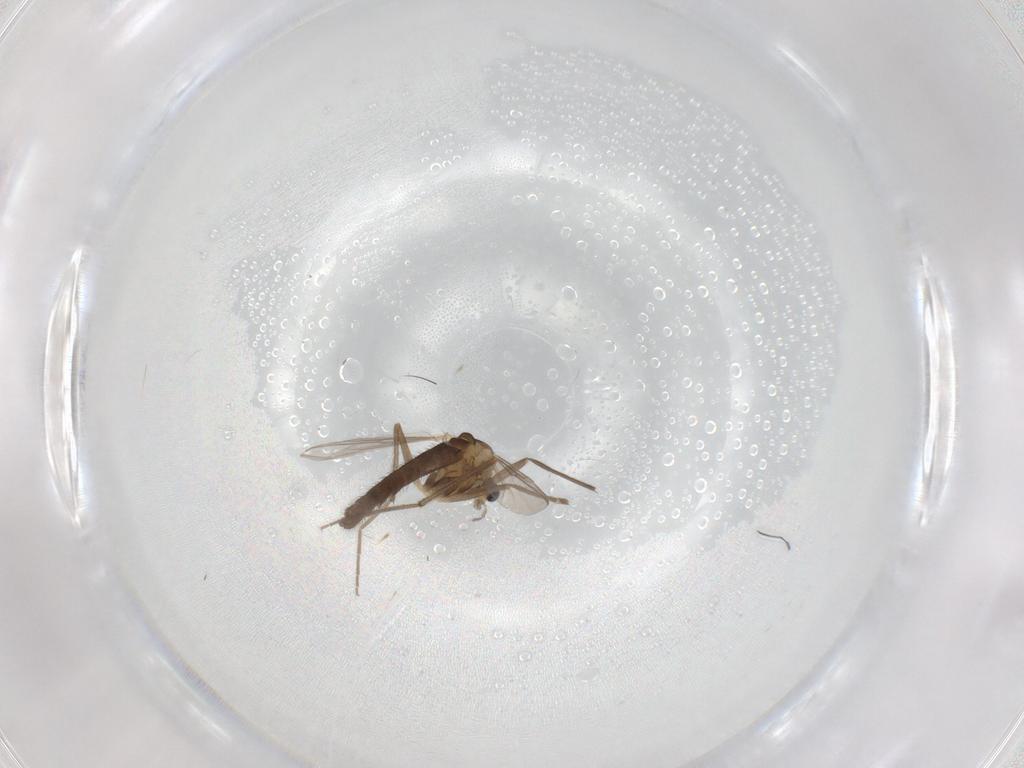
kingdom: Animalia
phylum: Arthropoda
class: Insecta
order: Diptera
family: Chironomidae
